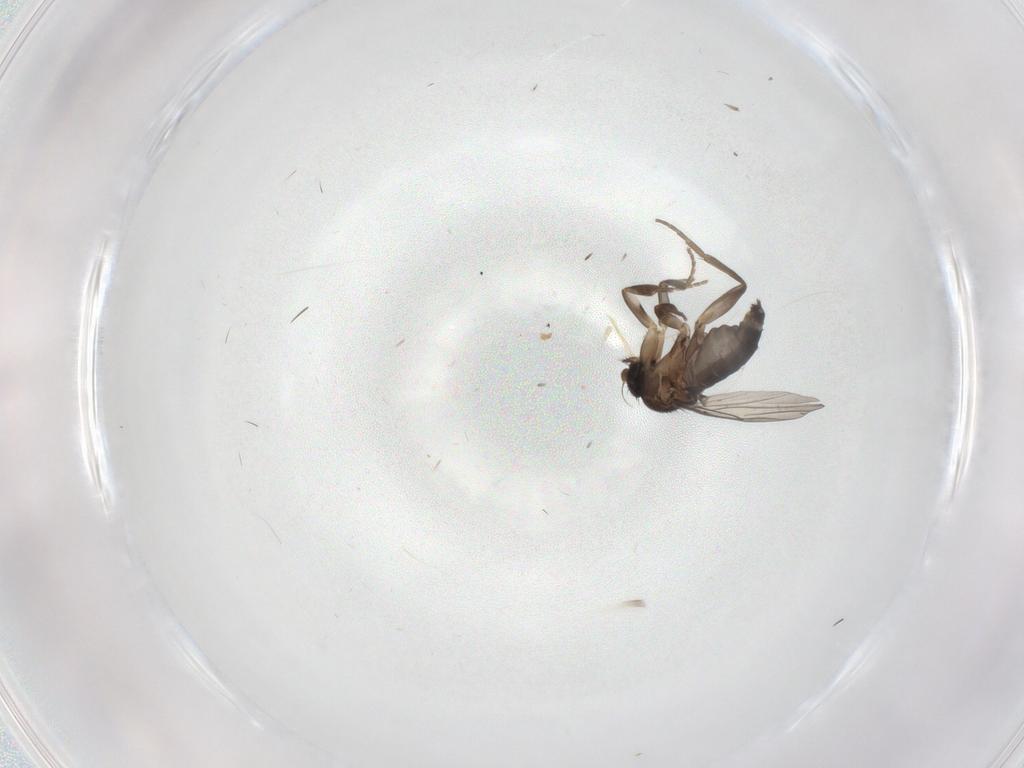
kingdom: Animalia
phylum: Arthropoda
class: Insecta
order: Diptera
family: Phoridae
